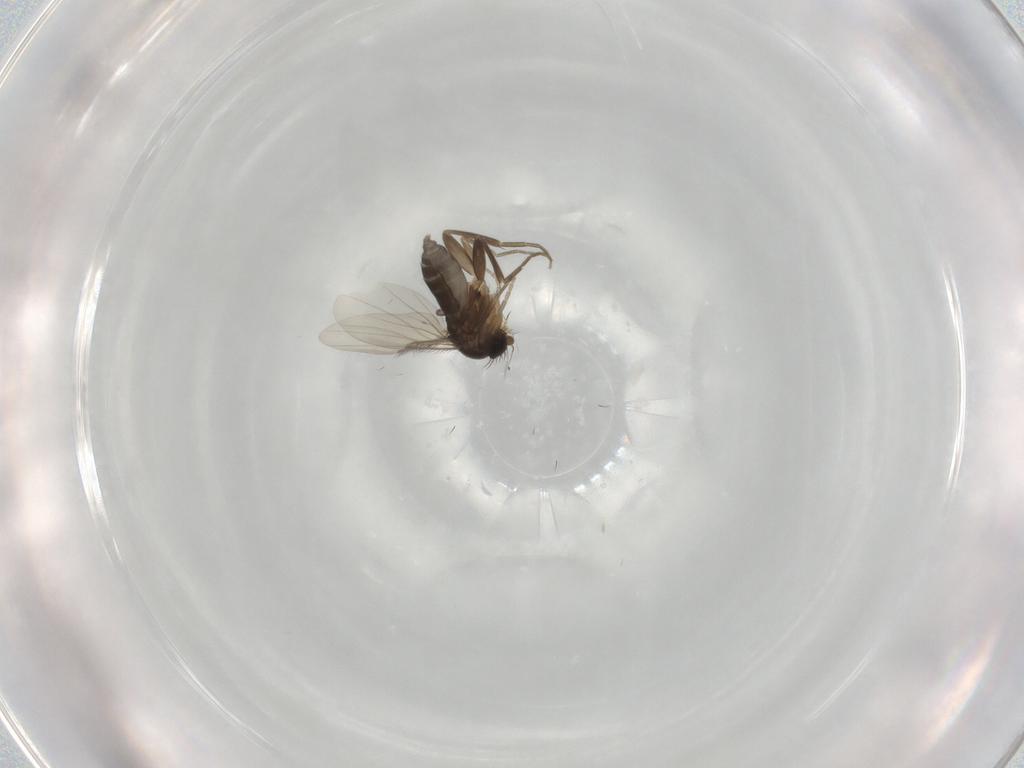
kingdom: Animalia
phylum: Arthropoda
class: Insecta
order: Diptera
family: Phoridae
